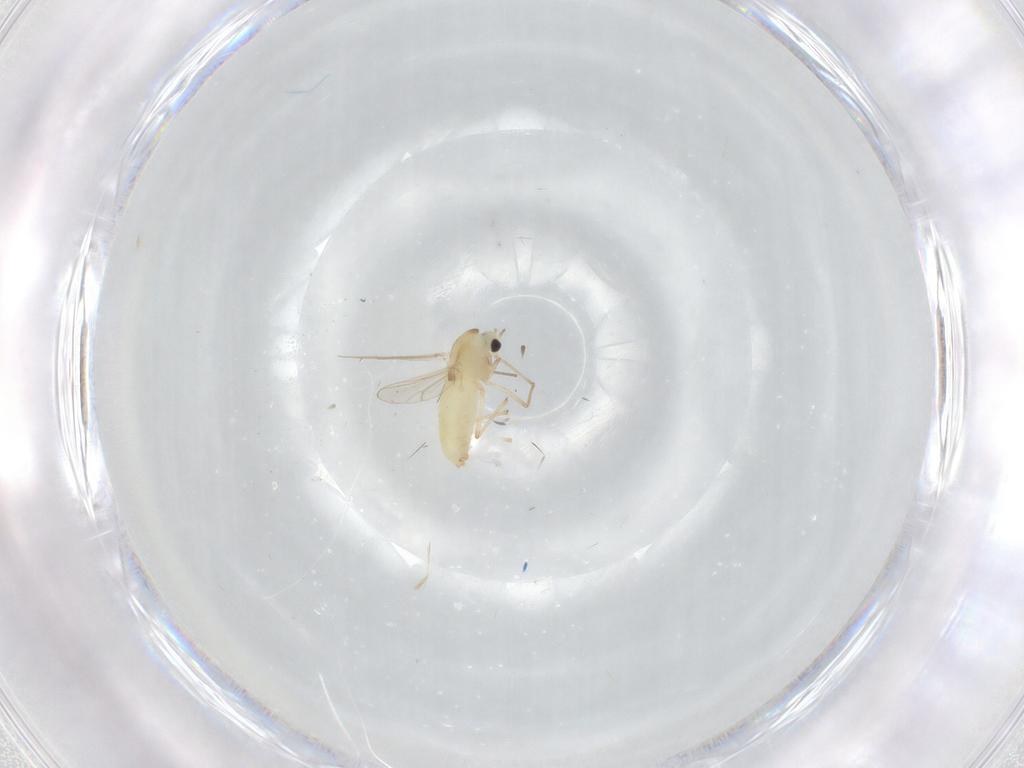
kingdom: Animalia
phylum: Arthropoda
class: Insecta
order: Diptera
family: Chironomidae
